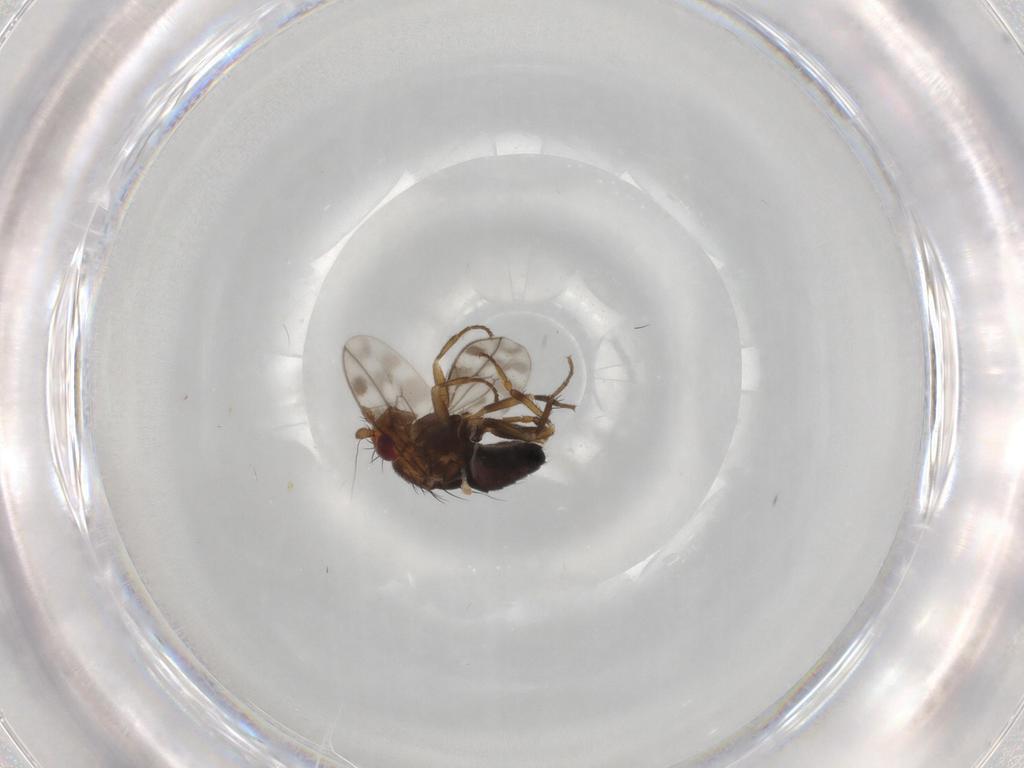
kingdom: Animalia
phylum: Arthropoda
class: Insecta
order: Diptera
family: Sphaeroceridae
